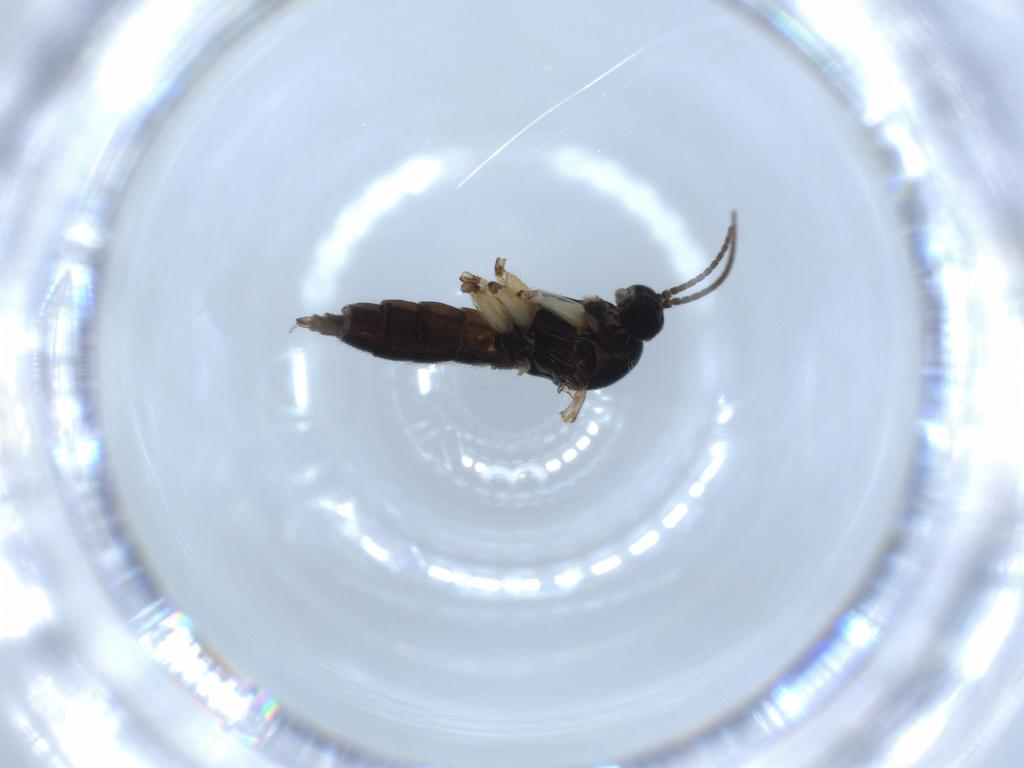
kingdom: Animalia
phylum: Arthropoda
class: Insecta
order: Diptera
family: Sciaridae
